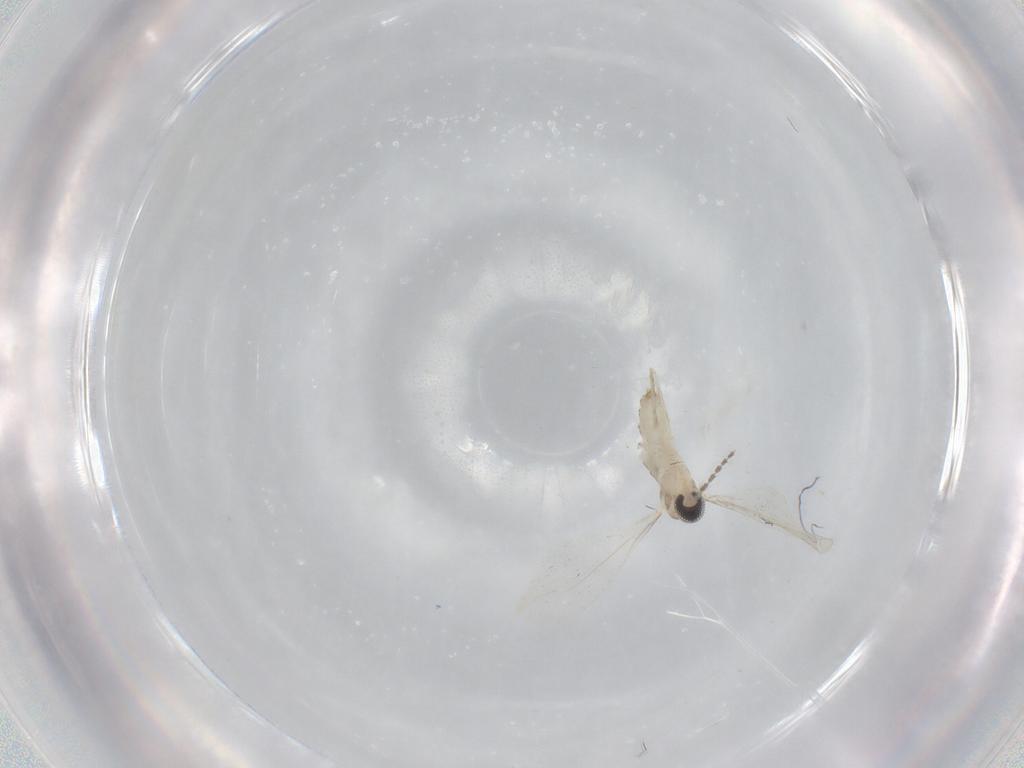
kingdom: Animalia
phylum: Arthropoda
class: Insecta
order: Diptera
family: Cecidomyiidae
